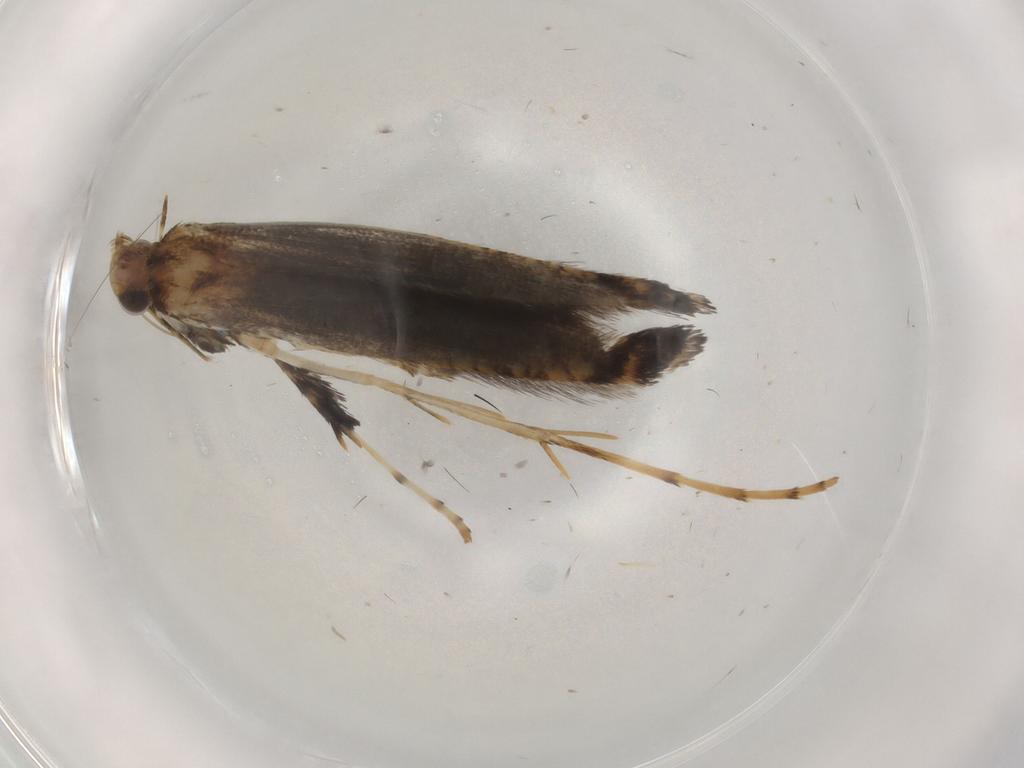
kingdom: Animalia
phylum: Arthropoda
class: Insecta
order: Lepidoptera
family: Gracillariidae
